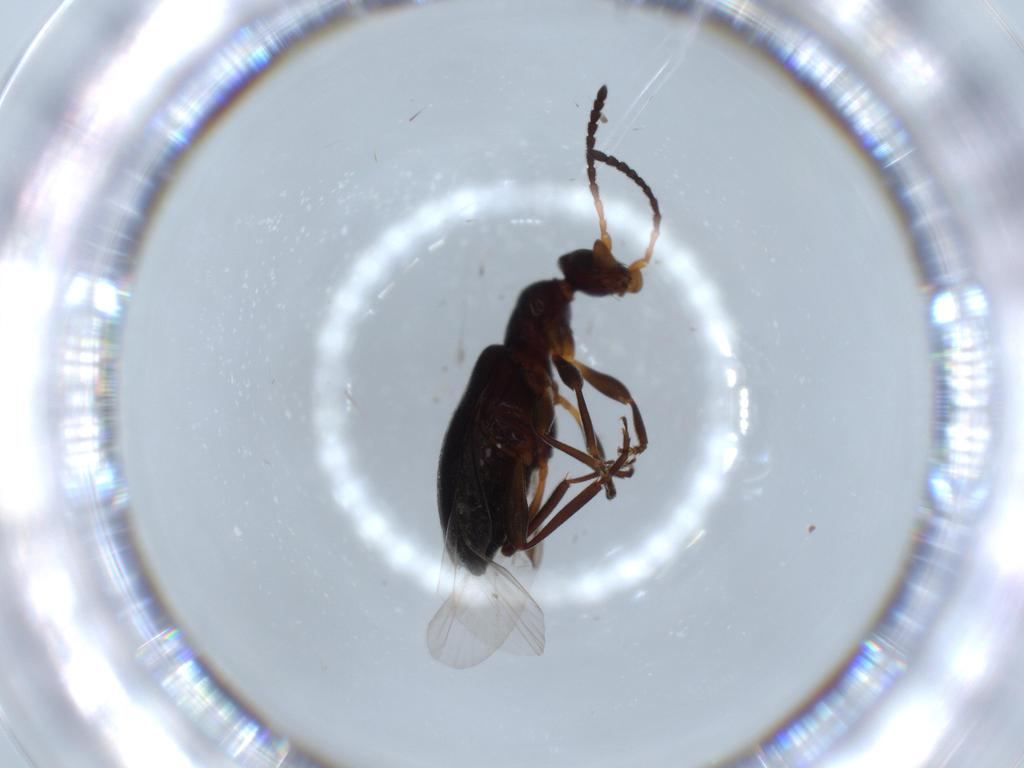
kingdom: Animalia
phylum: Arthropoda
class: Insecta
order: Coleoptera
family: Anthicidae
